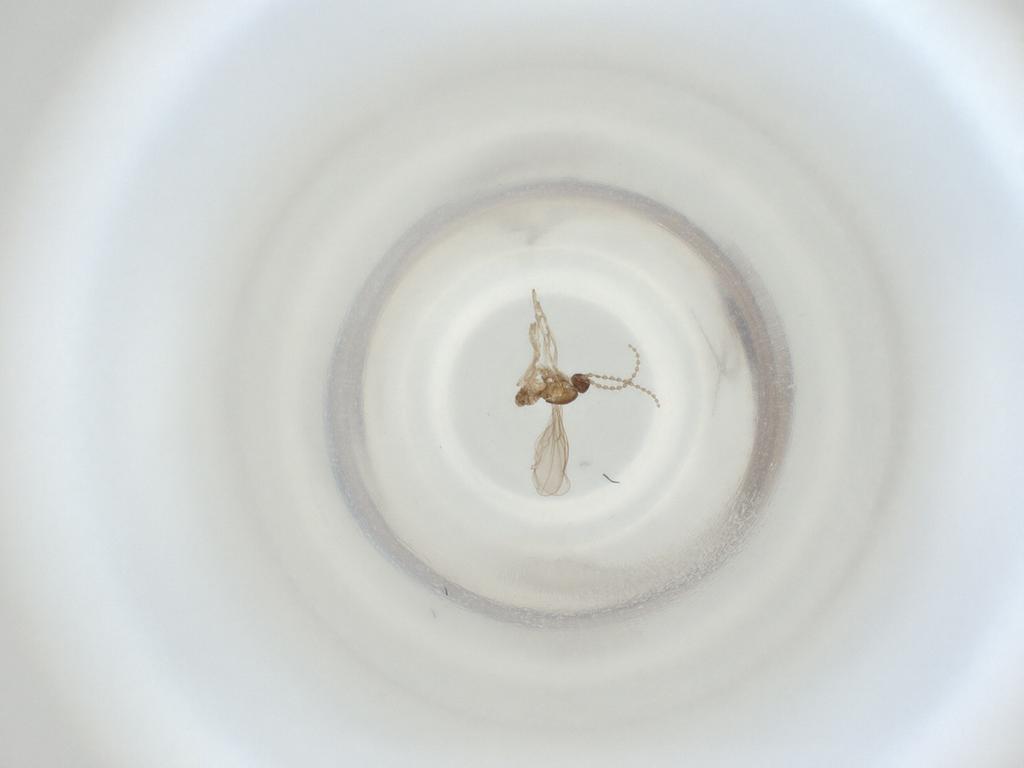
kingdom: Animalia
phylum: Arthropoda
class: Insecta
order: Diptera
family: Cecidomyiidae
